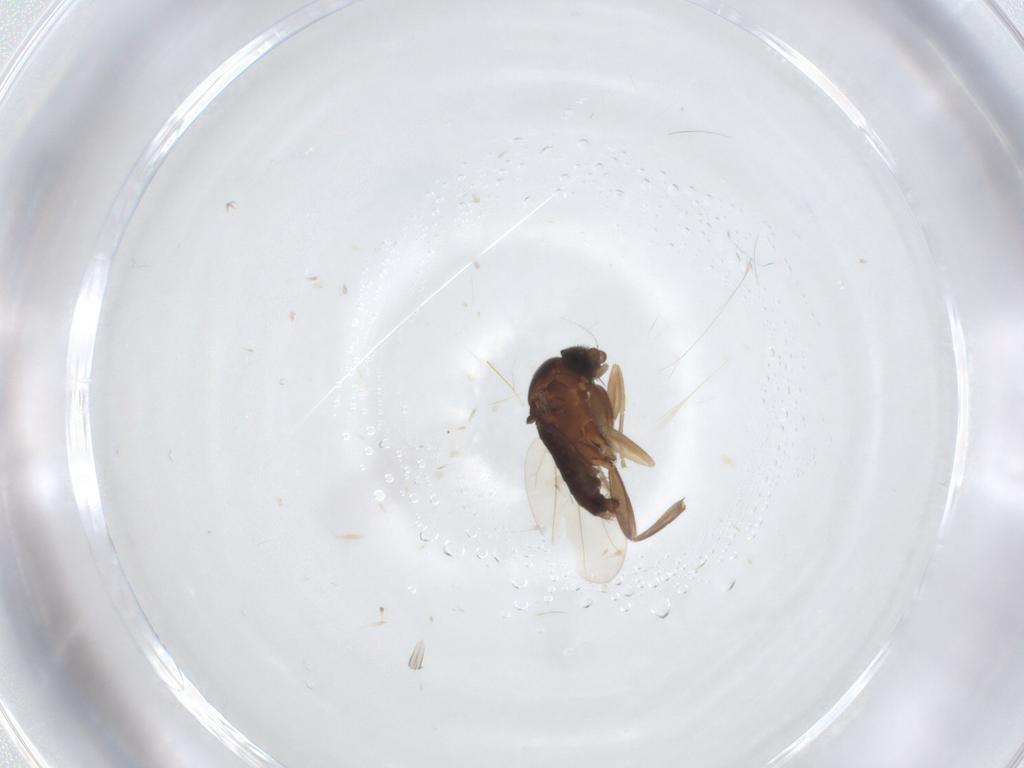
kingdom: Animalia
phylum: Arthropoda
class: Insecta
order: Diptera
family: Phoridae
